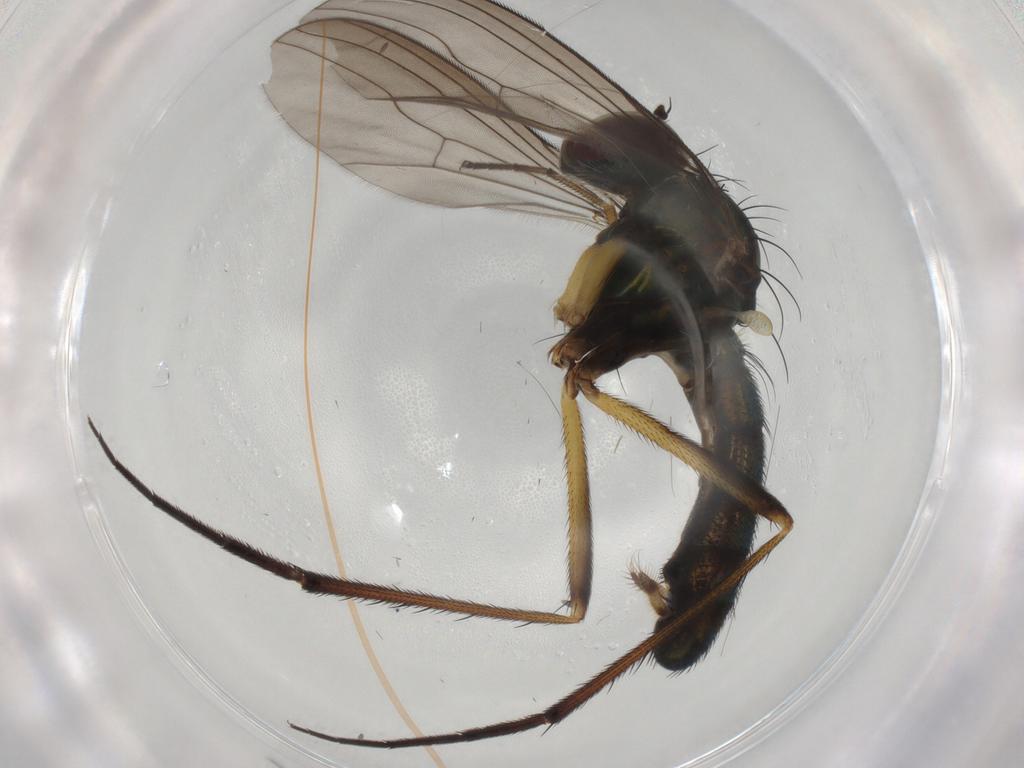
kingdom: Animalia
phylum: Arthropoda
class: Insecta
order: Diptera
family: Dolichopodidae
